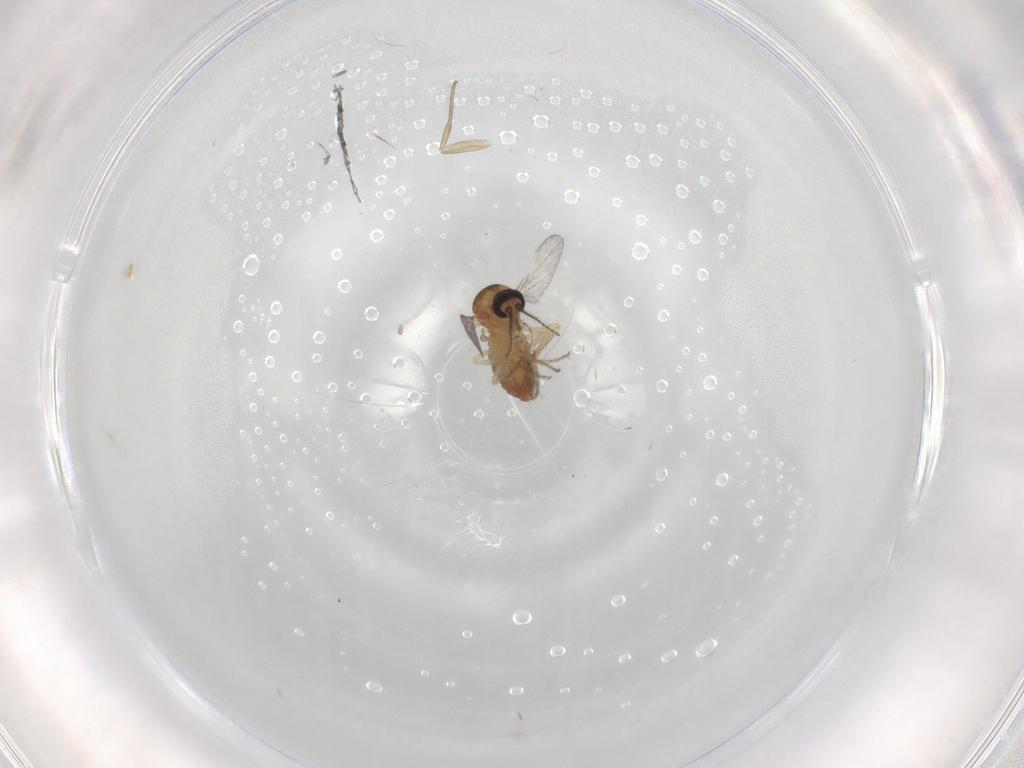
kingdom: Animalia
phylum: Arthropoda
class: Insecta
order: Diptera
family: Ceratopogonidae
